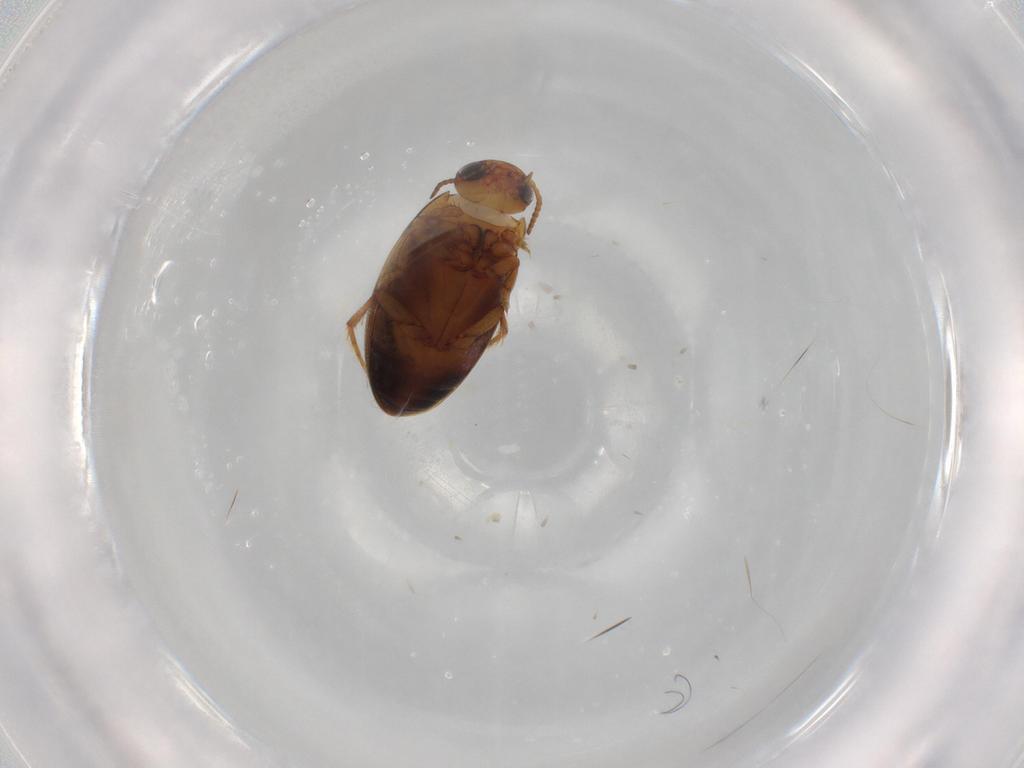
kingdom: Animalia
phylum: Arthropoda
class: Insecta
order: Coleoptera
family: Dytiscidae
